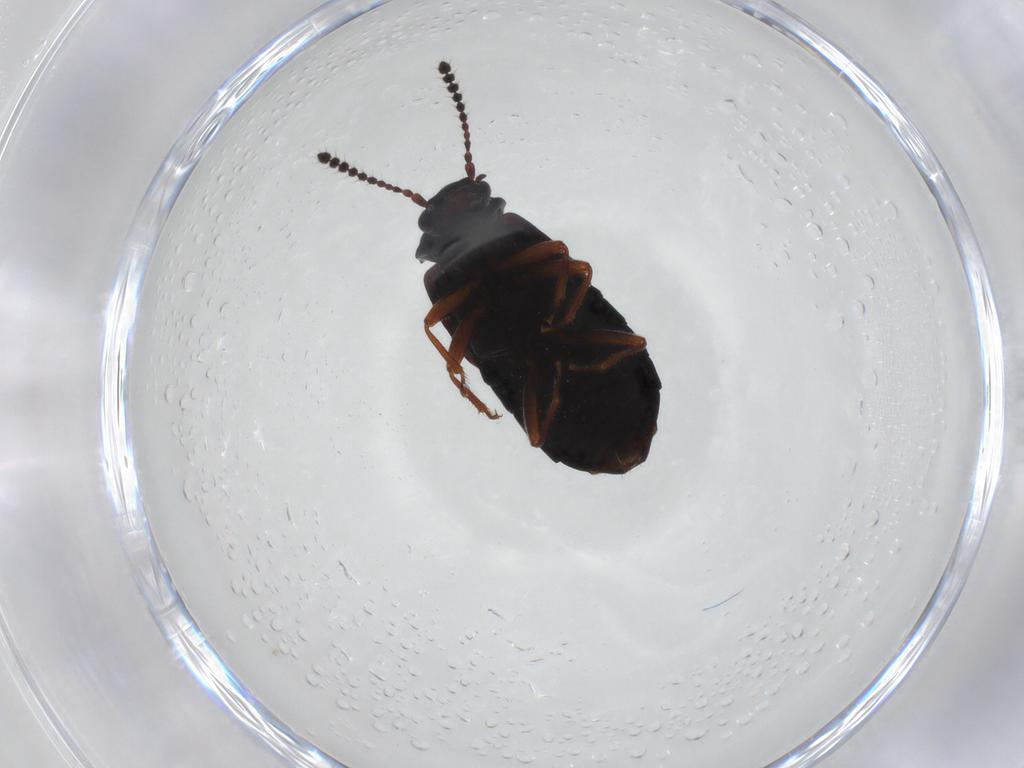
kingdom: Animalia
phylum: Arthropoda
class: Insecta
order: Coleoptera
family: Staphylinidae
